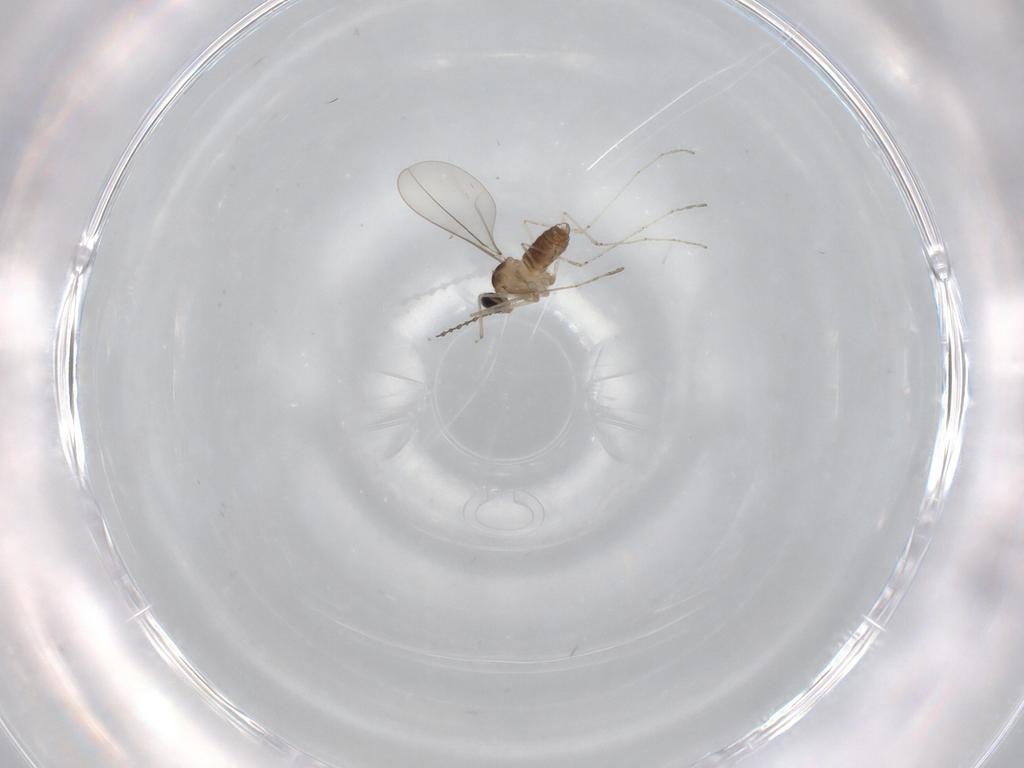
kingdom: Animalia
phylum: Arthropoda
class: Insecta
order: Diptera
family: Cecidomyiidae
